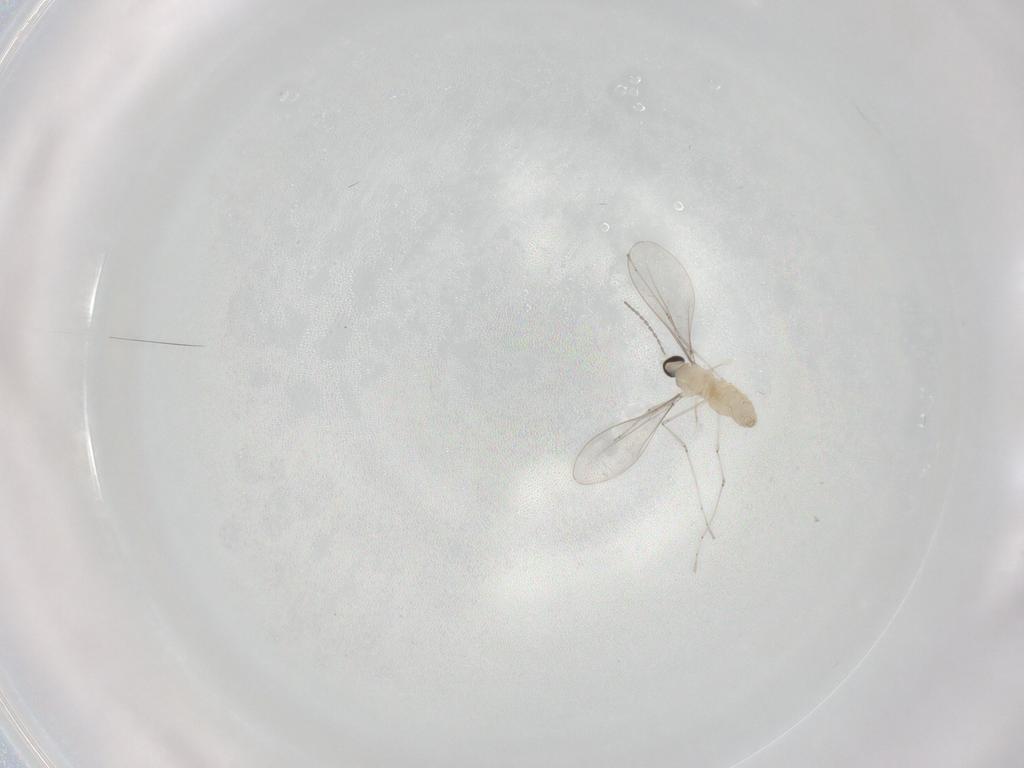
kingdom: Animalia
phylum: Arthropoda
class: Insecta
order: Diptera
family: Cecidomyiidae
